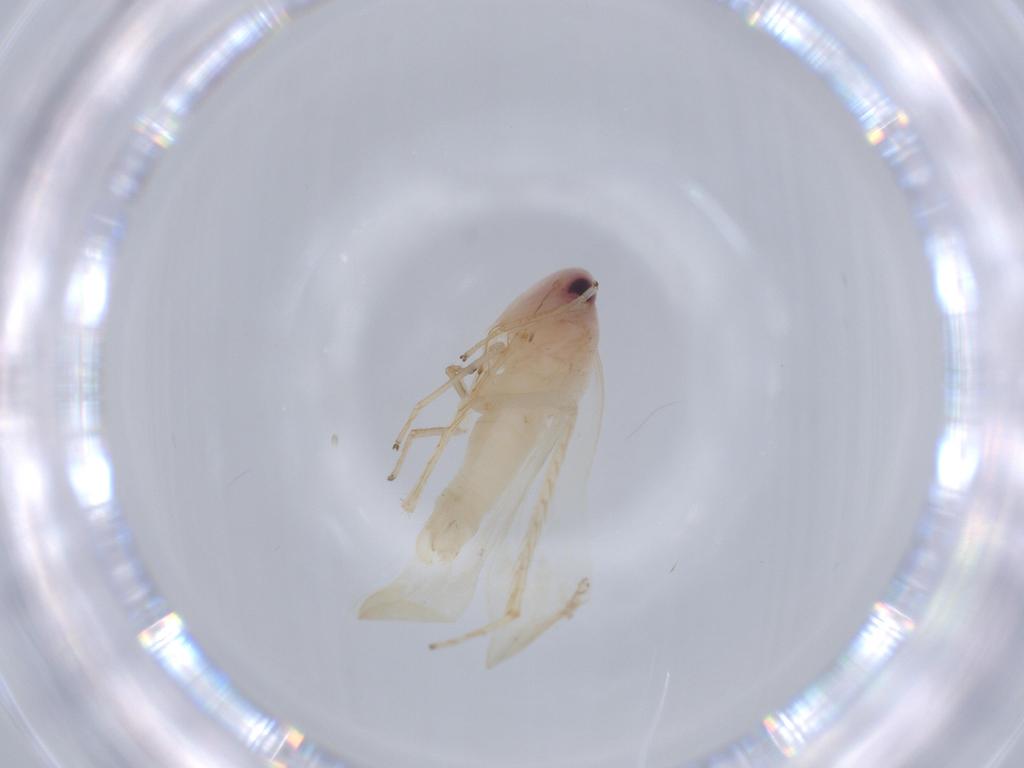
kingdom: Animalia
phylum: Arthropoda
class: Insecta
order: Hemiptera
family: Cicadellidae
